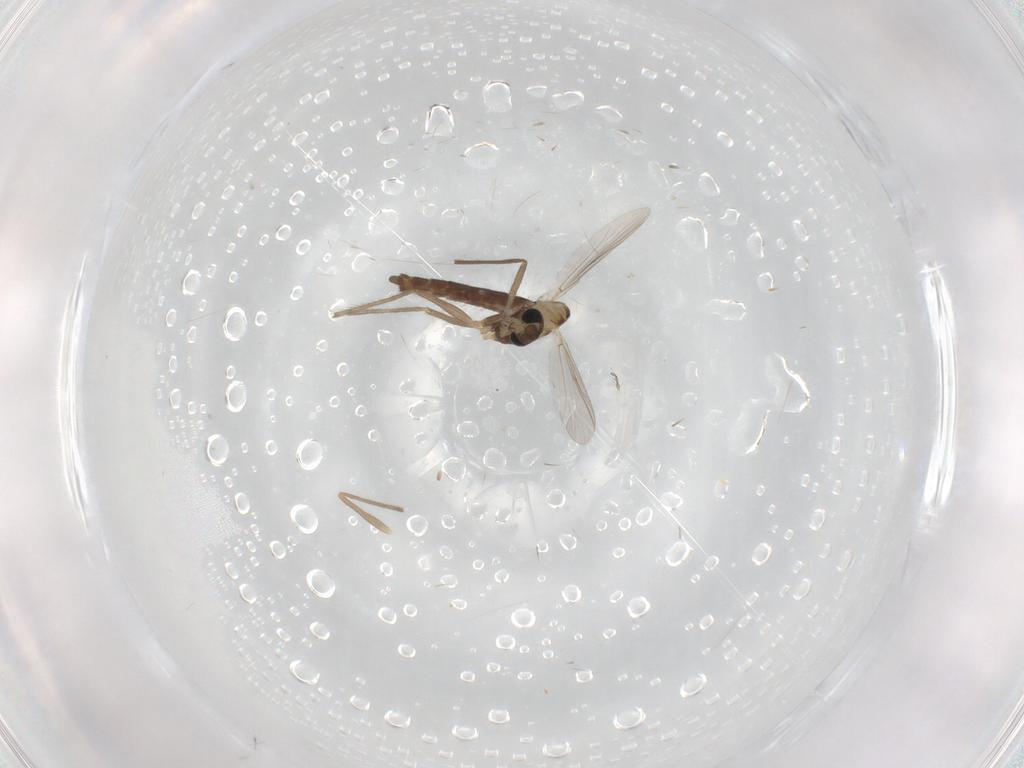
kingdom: Animalia
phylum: Arthropoda
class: Insecta
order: Diptera
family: Chironomidae
